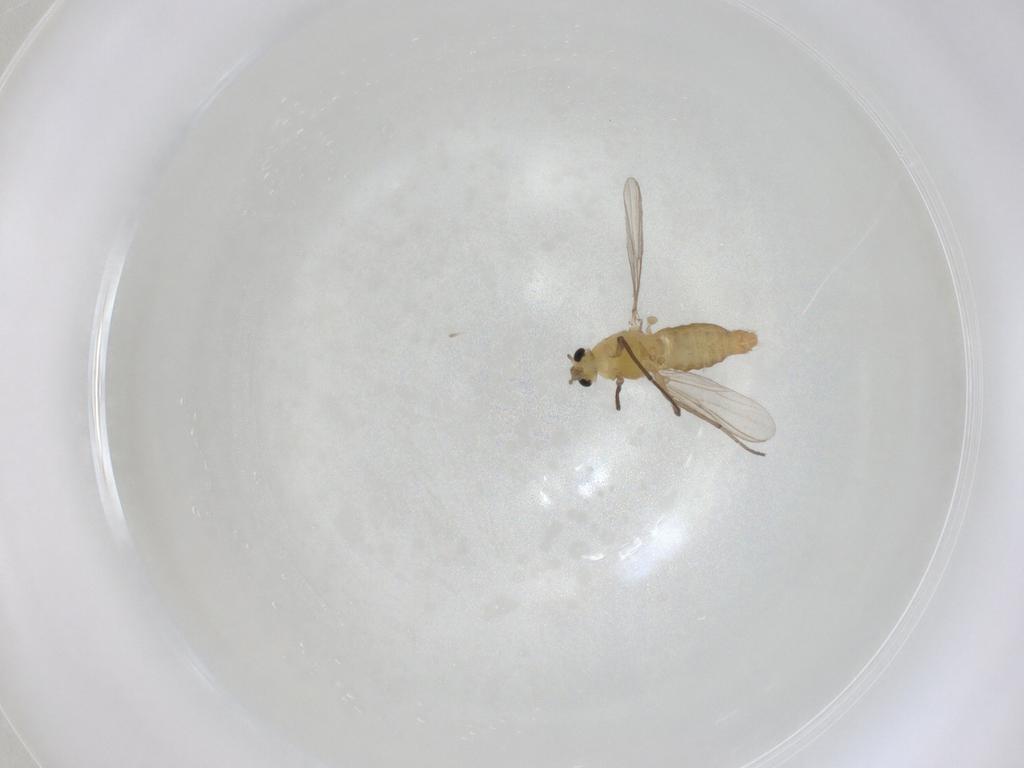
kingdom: Animalia
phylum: Arthropoda
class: Insecta
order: Diptera
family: Chironomidae
